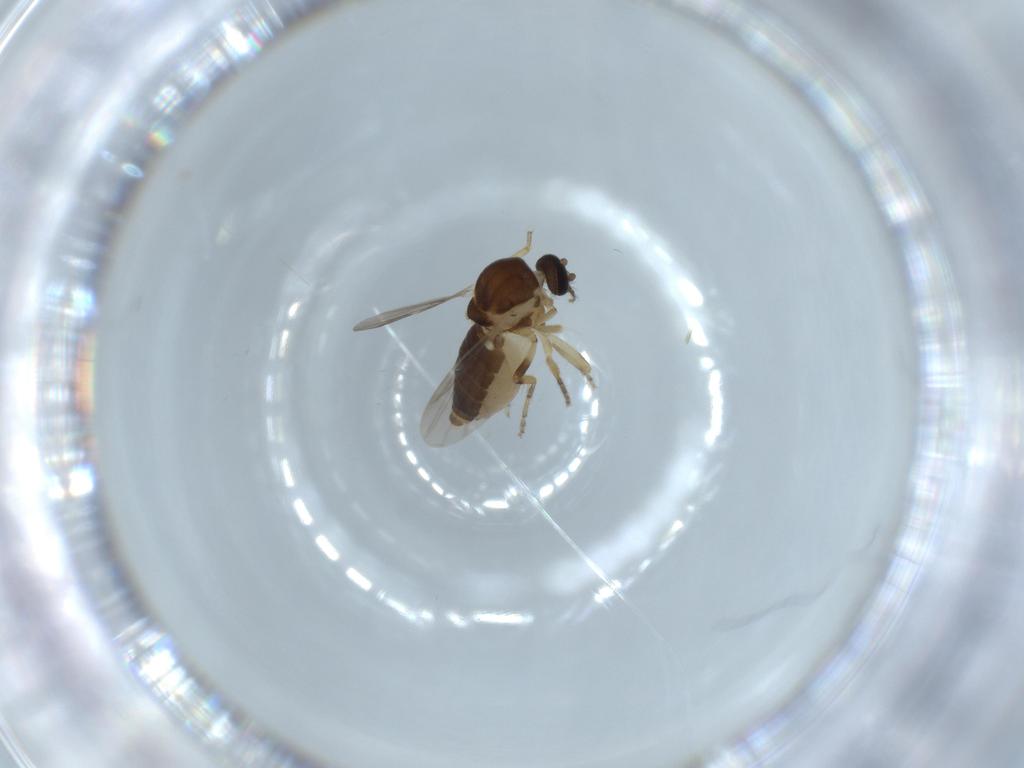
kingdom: Animalia
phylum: Arthropoda
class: Insecta
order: Diptera
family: Ceratopogonidae
